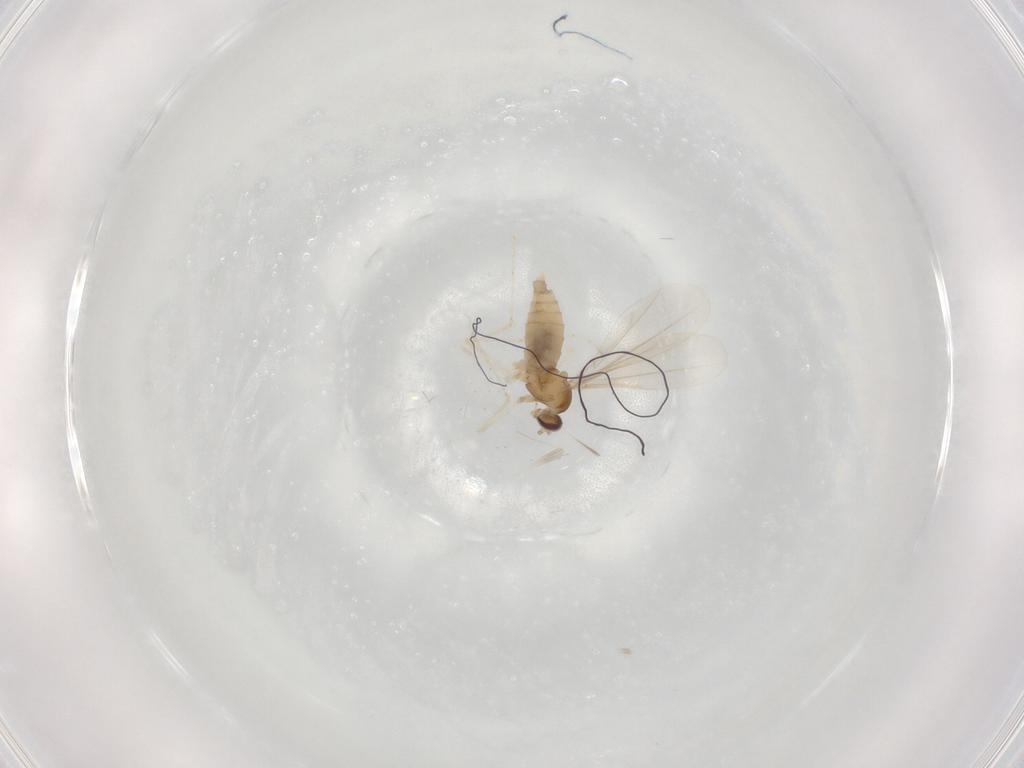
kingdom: Animalia
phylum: Arthropoda
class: Insecta
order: Diptera
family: Cecidomyiidae
